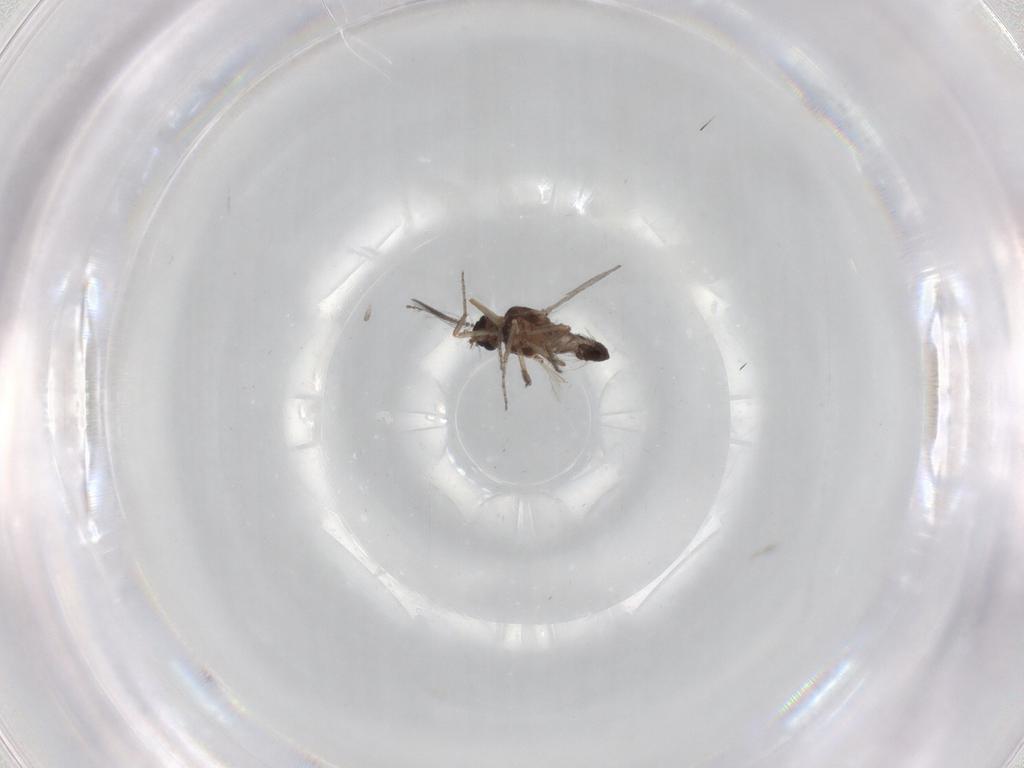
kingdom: Animalia
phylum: Arthropoda
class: Insecta
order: Diptera
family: Ceratopogonidae
